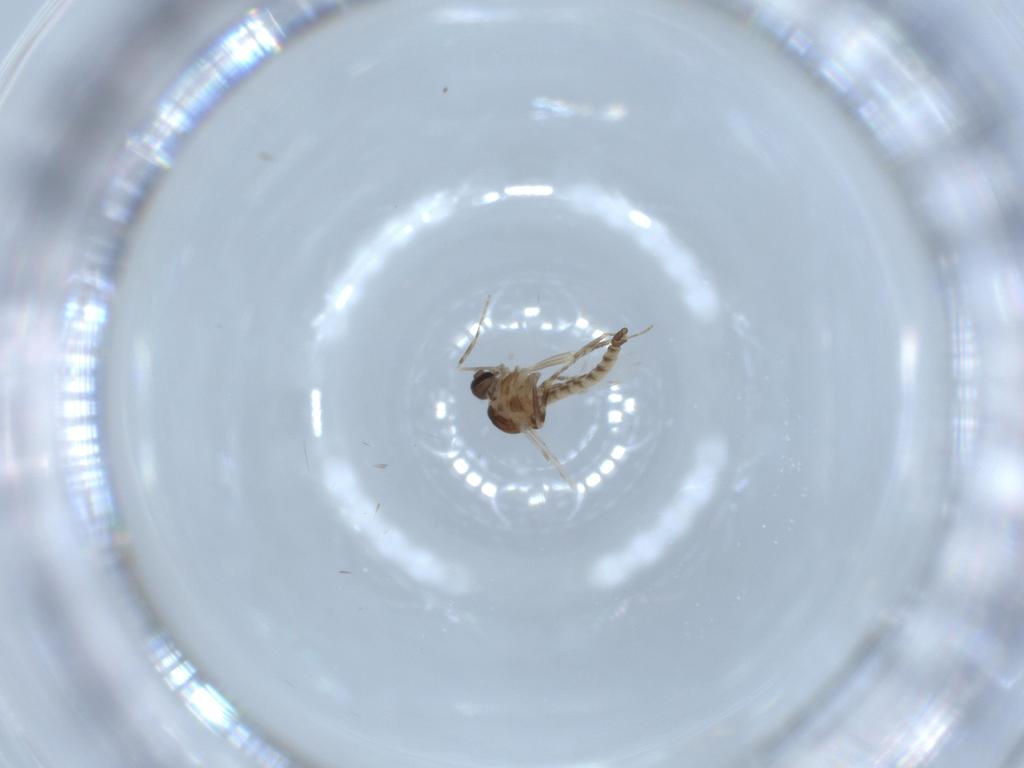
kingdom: Animalia
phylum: Arthropoda
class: Insecta
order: Diptera
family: Ceratopogonidae
